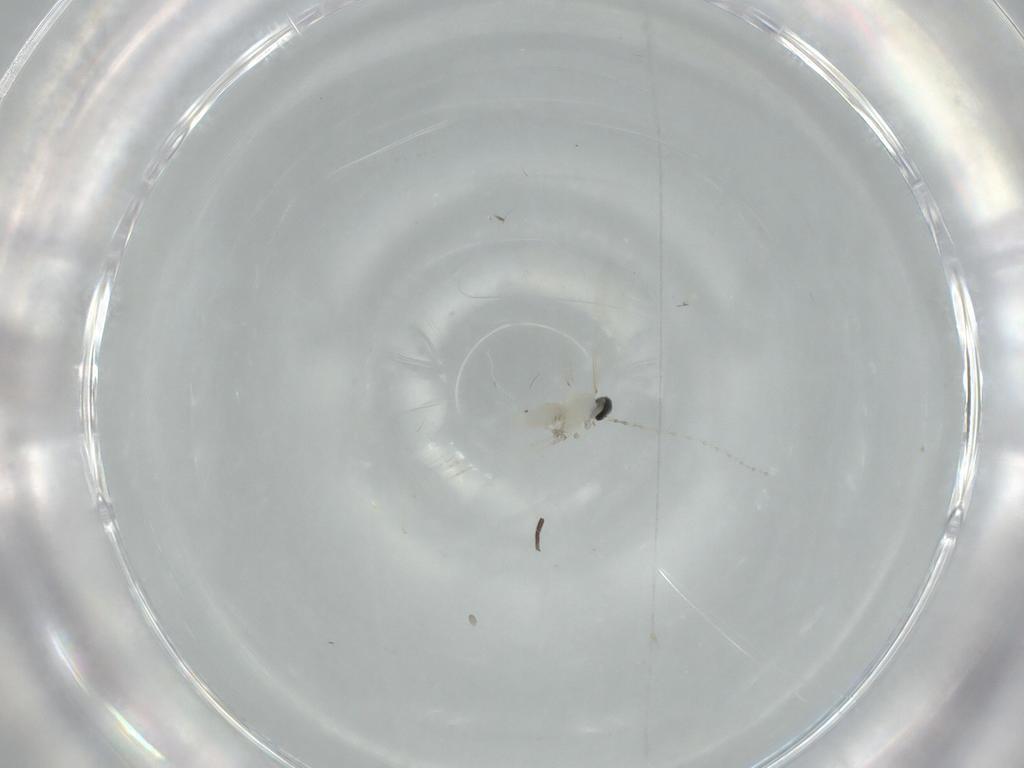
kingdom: Animalia
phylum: Arthropoda
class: Insecta
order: Diptera
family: Cecidomyiidae
